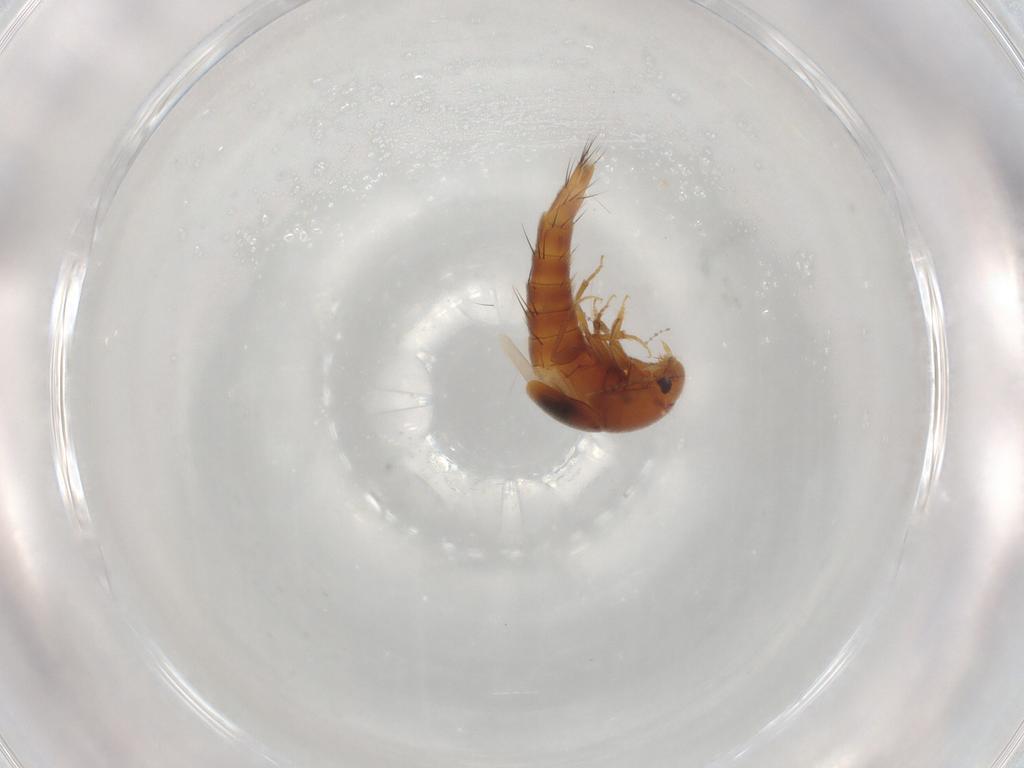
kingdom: Animalia
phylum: Arthropoda
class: Insecta
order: Coleoptera
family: Staphylinidae
